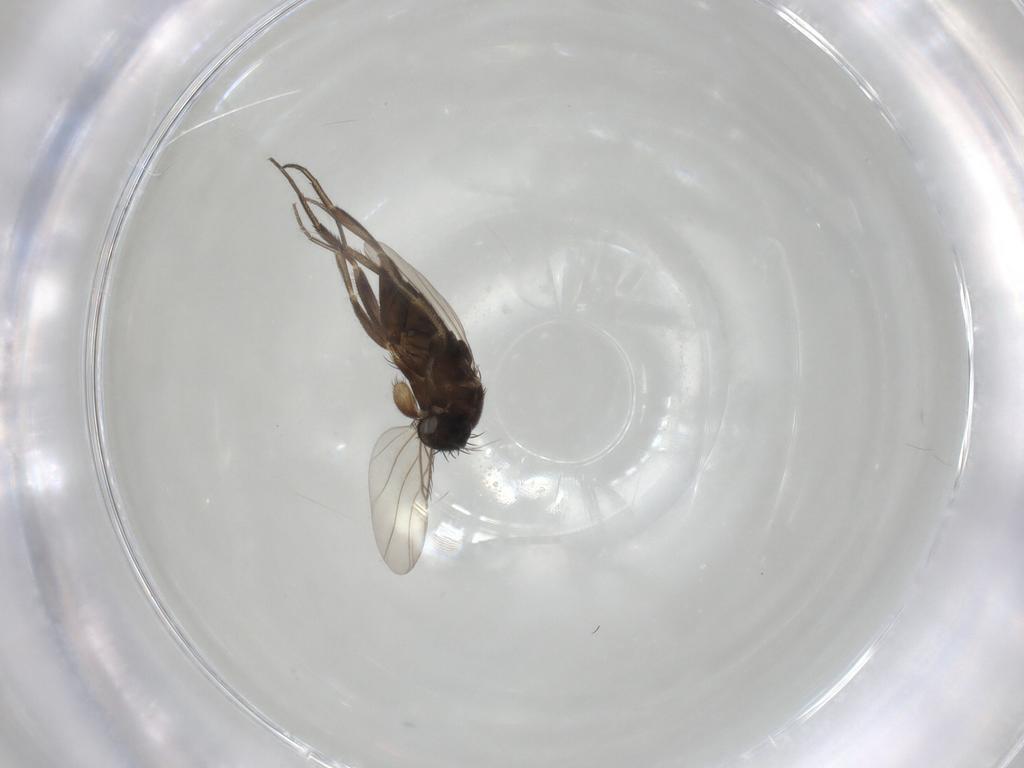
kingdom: Animalia
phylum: Arthropoda
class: Insecta
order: Diptera
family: Phoridae
